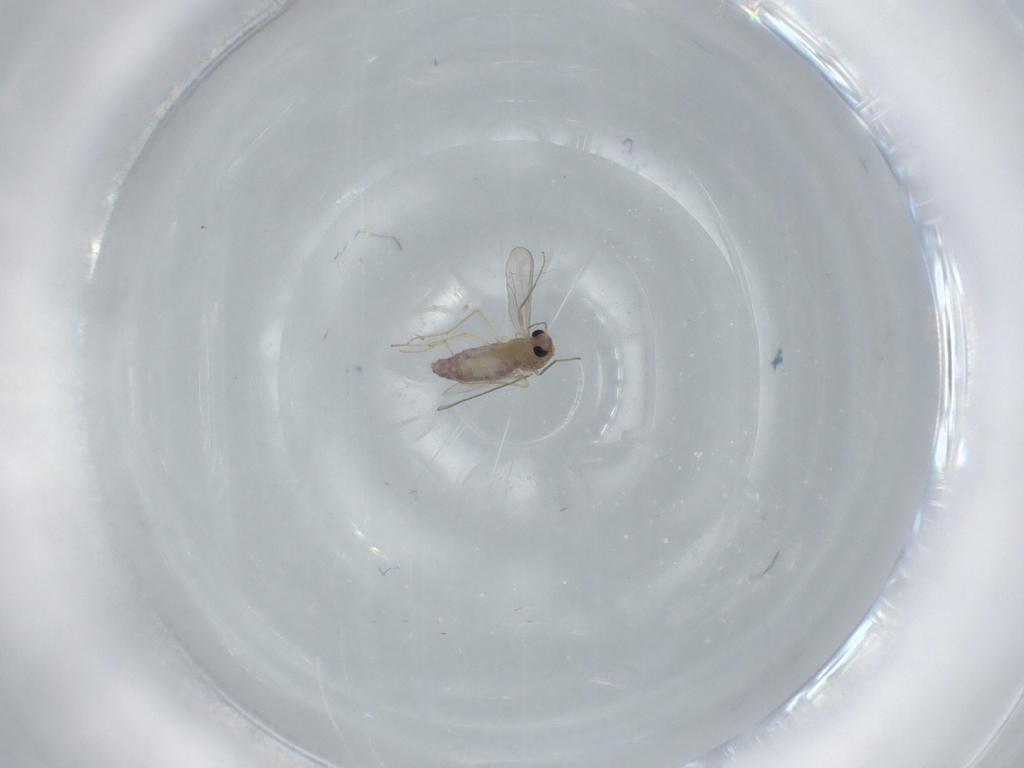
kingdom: Animalia
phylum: Arthropoda
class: Insecta
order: Diptera
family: Chironomidae
